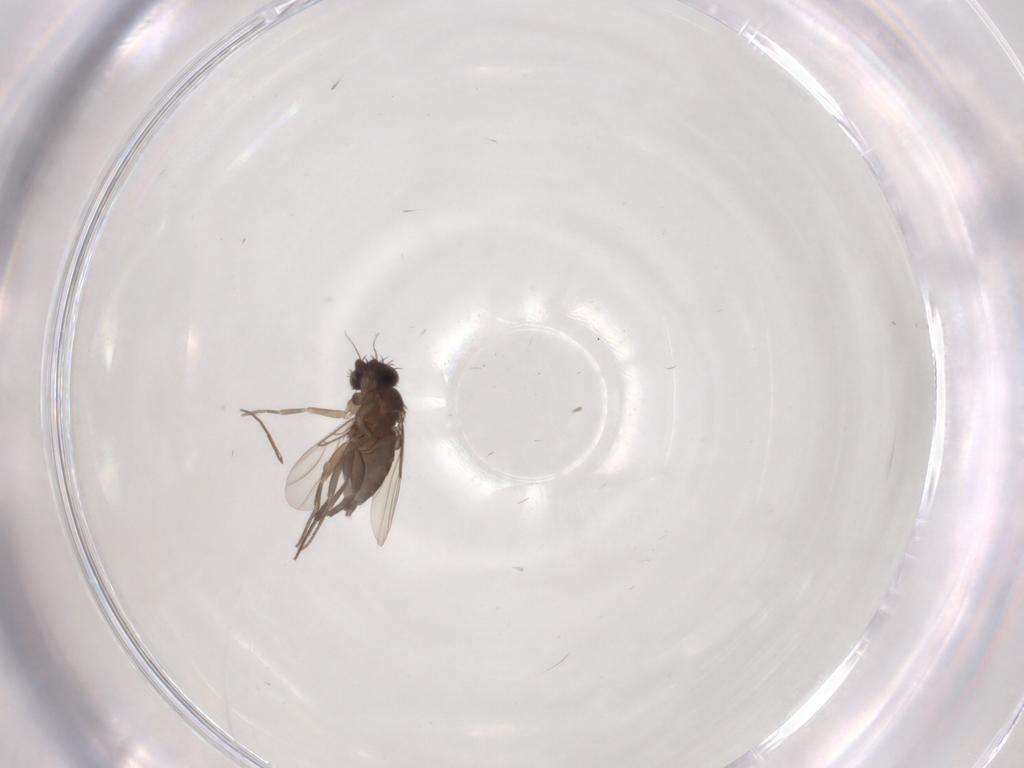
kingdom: Animalia
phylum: Arthropoda
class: Insecta
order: Diptera
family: Phoridae
